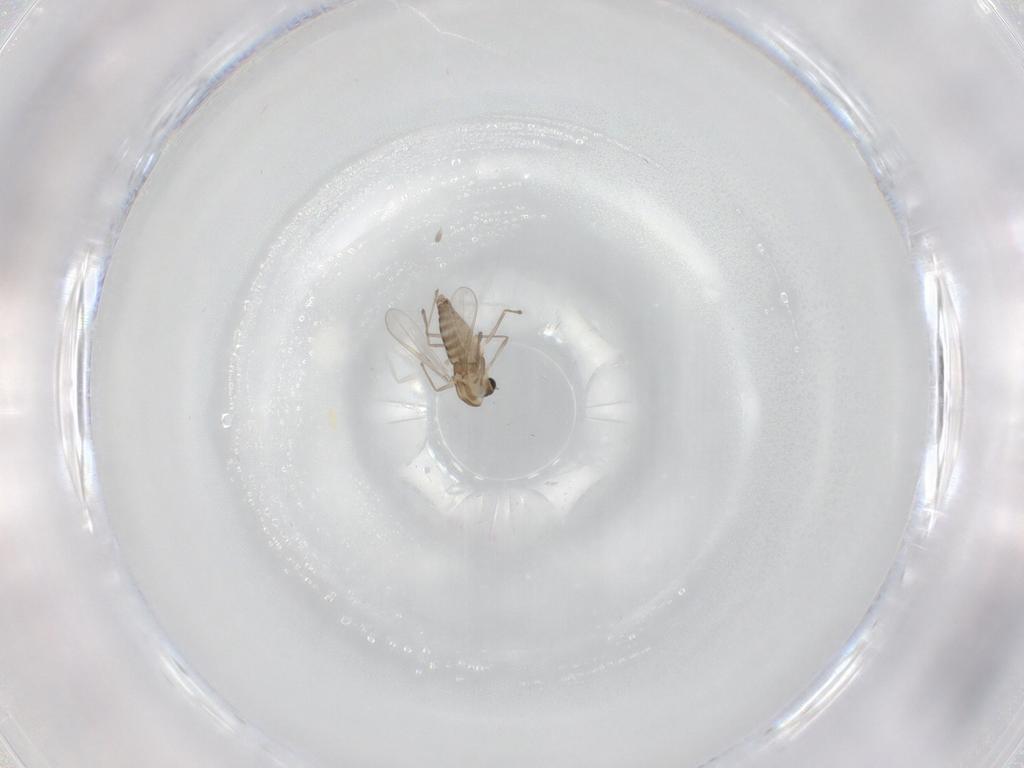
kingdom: Animalia
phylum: Arthropoda
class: Insecta
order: Diptera
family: Chironomidae
